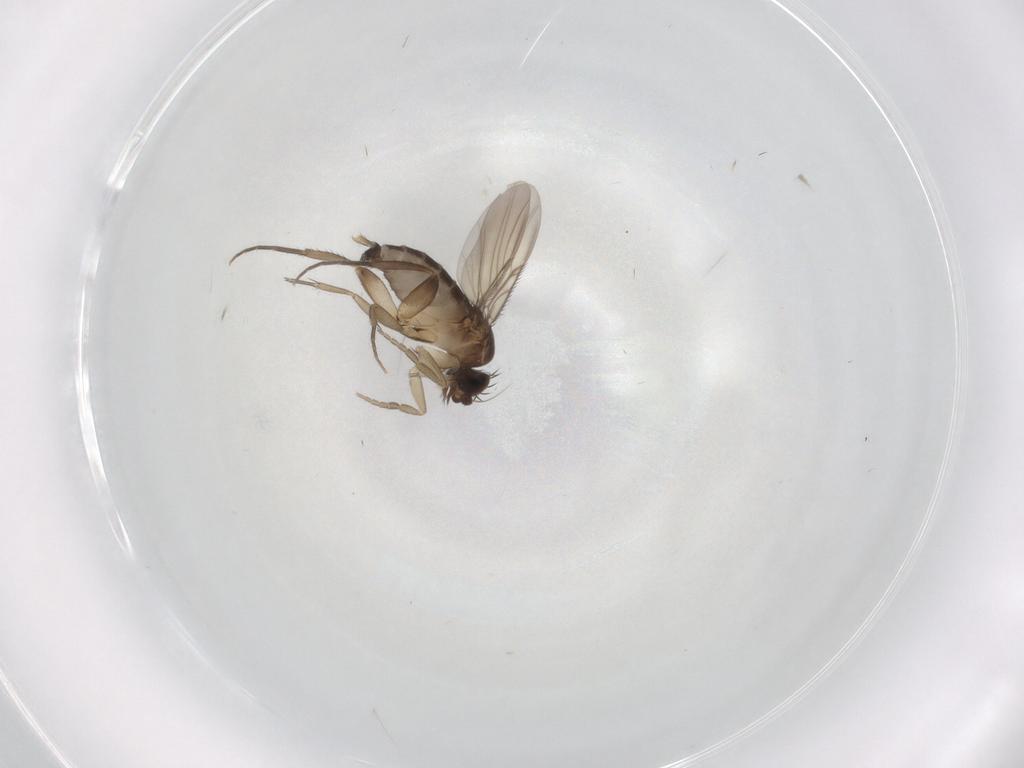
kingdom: Animalia
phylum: Arthropoda
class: Insecta
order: Diptera
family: Phoridae
